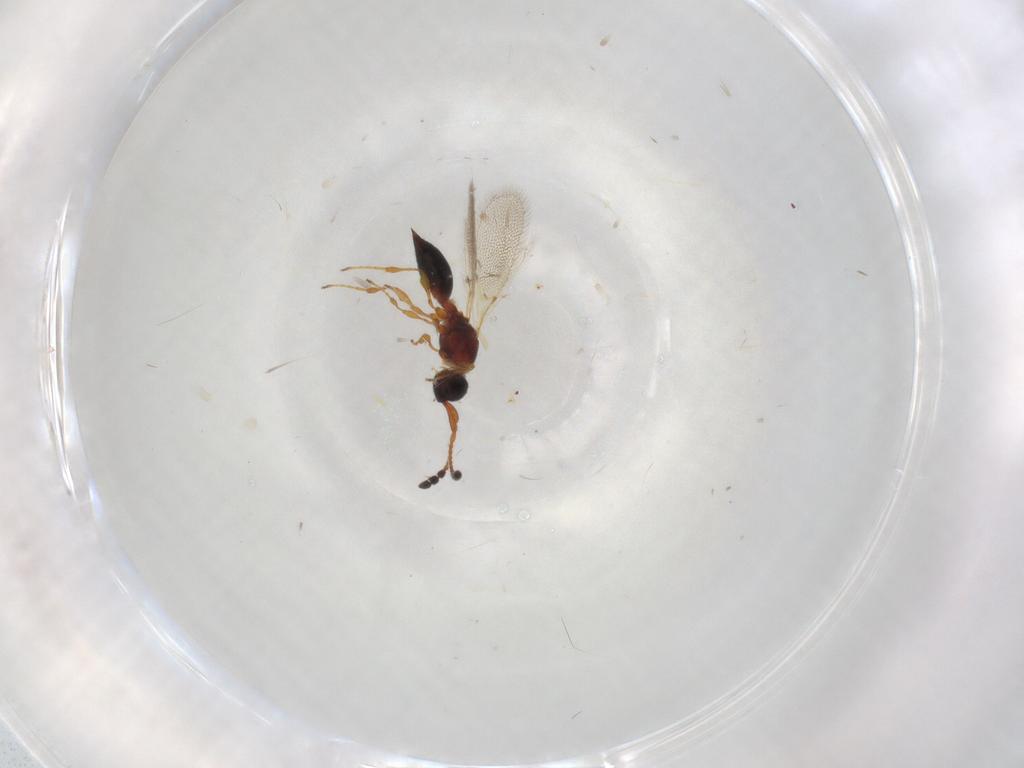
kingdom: Animalia
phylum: Arthropoda
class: Insecta
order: Hymenoptera
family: Diapriidae
